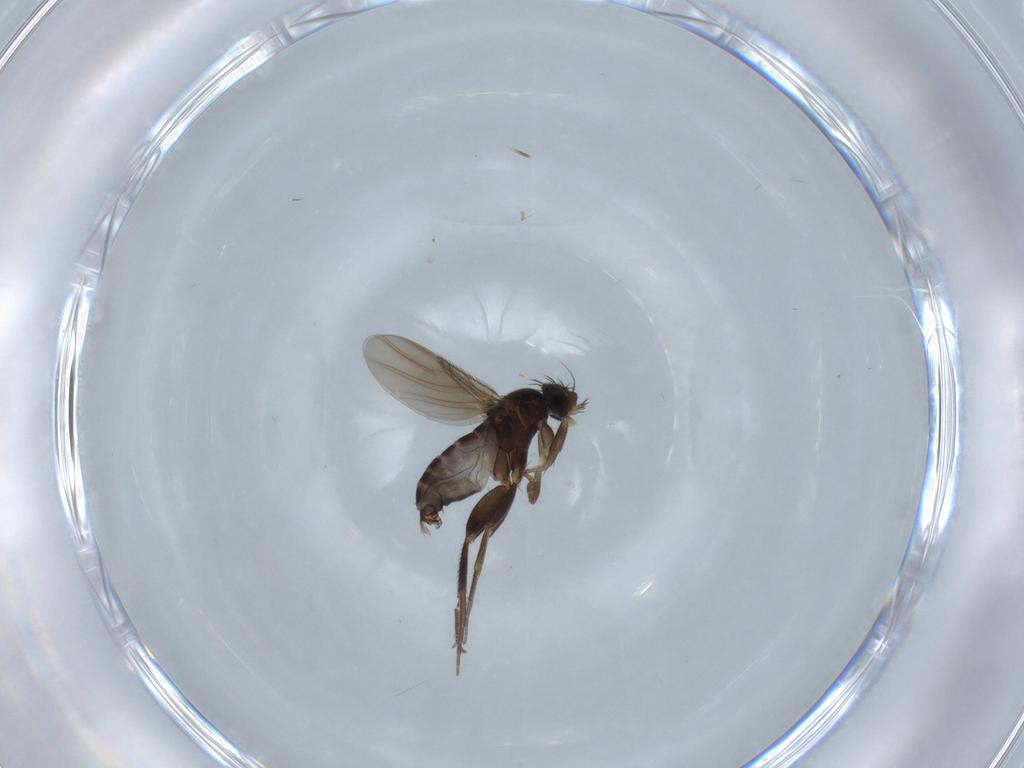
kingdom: Animalia
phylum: Arthropoda
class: Insecta
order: Diptera
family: Phoridae
